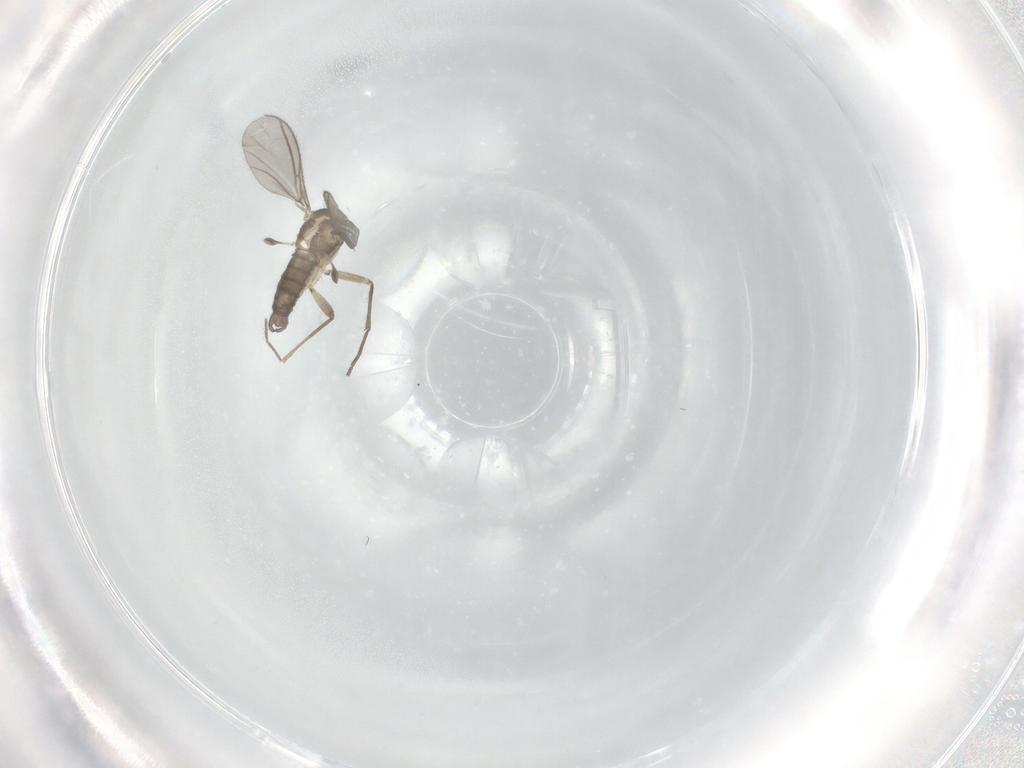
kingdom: Animalia
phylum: Arthropoda
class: Insecta
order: Diptera
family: Sciaridae
